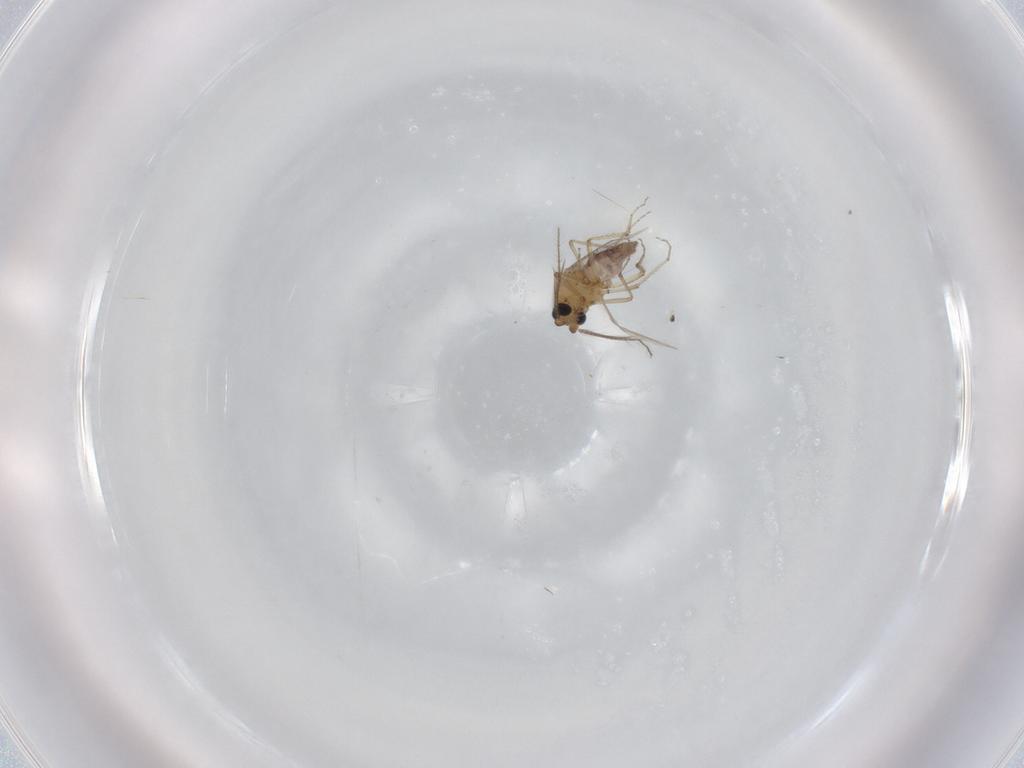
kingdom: Animalia
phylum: Arthropoda
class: Insecta
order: Diptera
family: Ceratopogonidae
